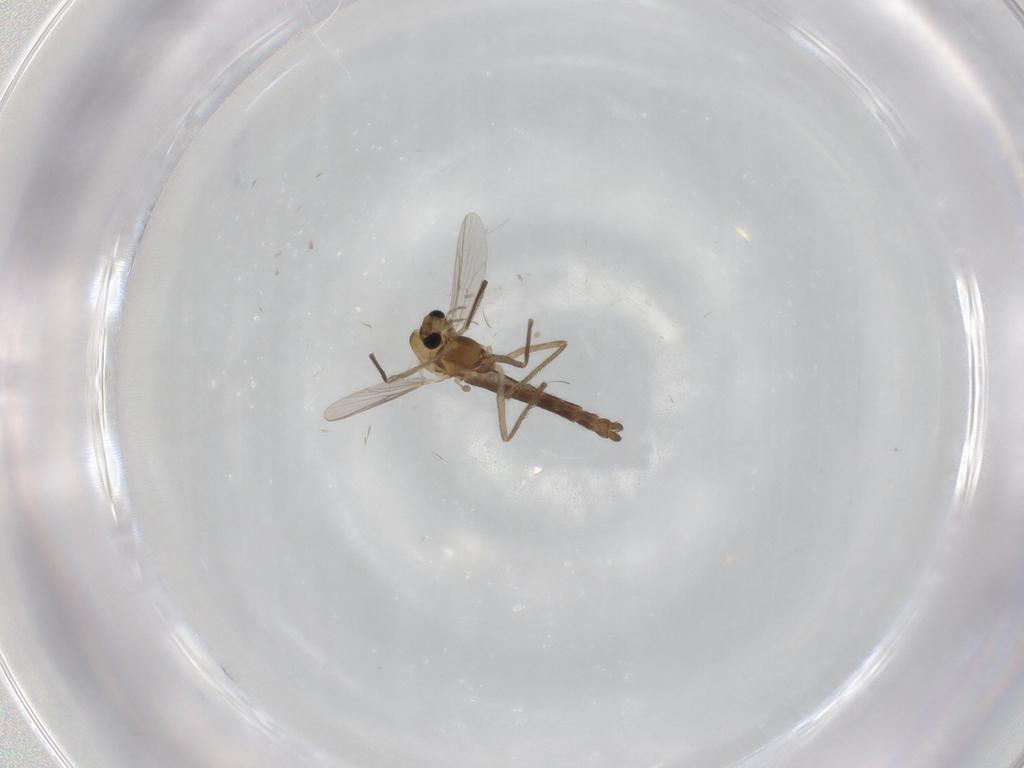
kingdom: Animalia
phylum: Arthropoda
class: Insecta
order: Diptera
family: Chironomidae
